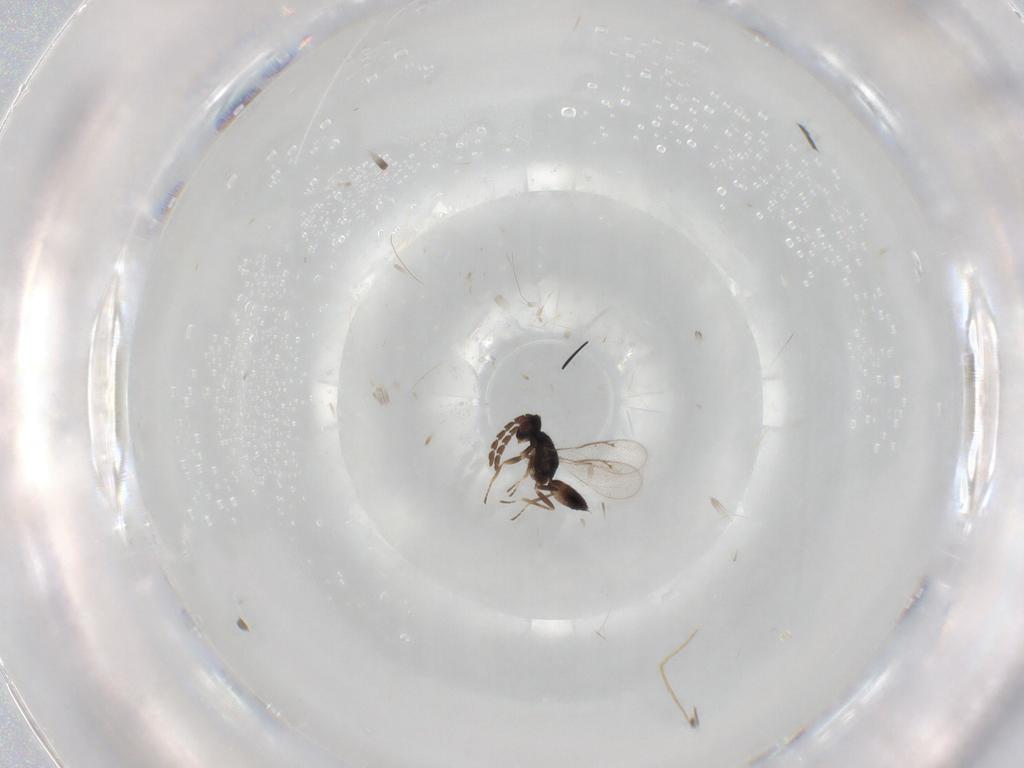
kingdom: Animalia
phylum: Arthropoda
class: Insecta
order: Hymenoptera
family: Eulophidae
